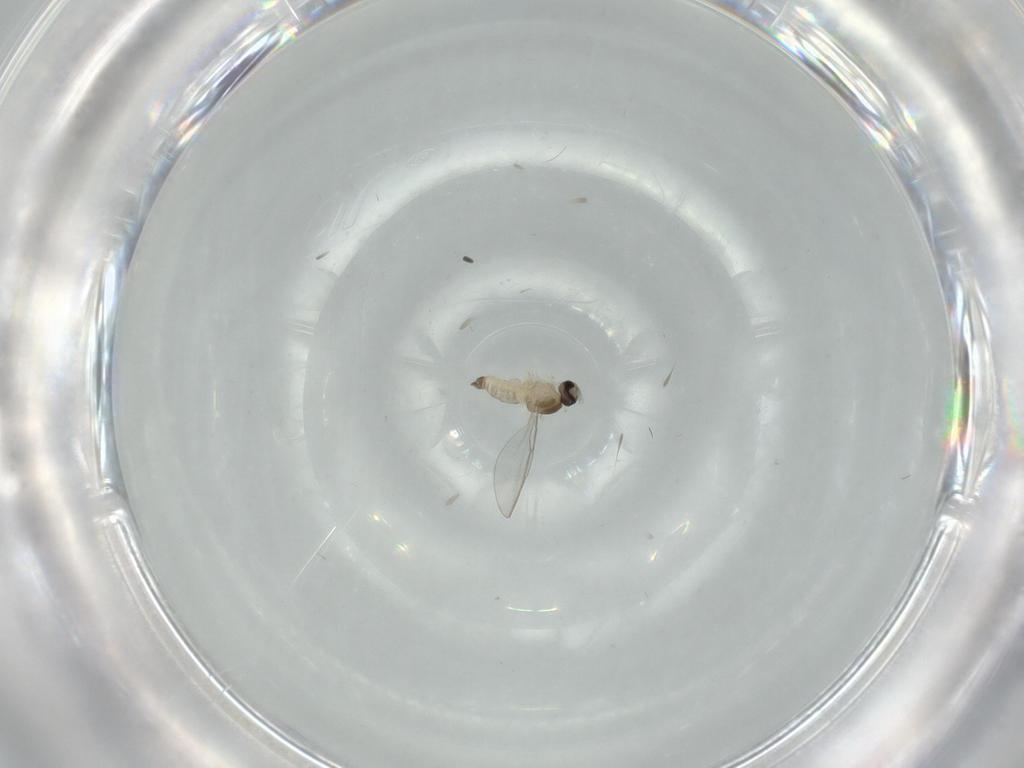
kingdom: Animalia
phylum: Arthropoda
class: Insecta
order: Diptera
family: Cecidomyiidae
